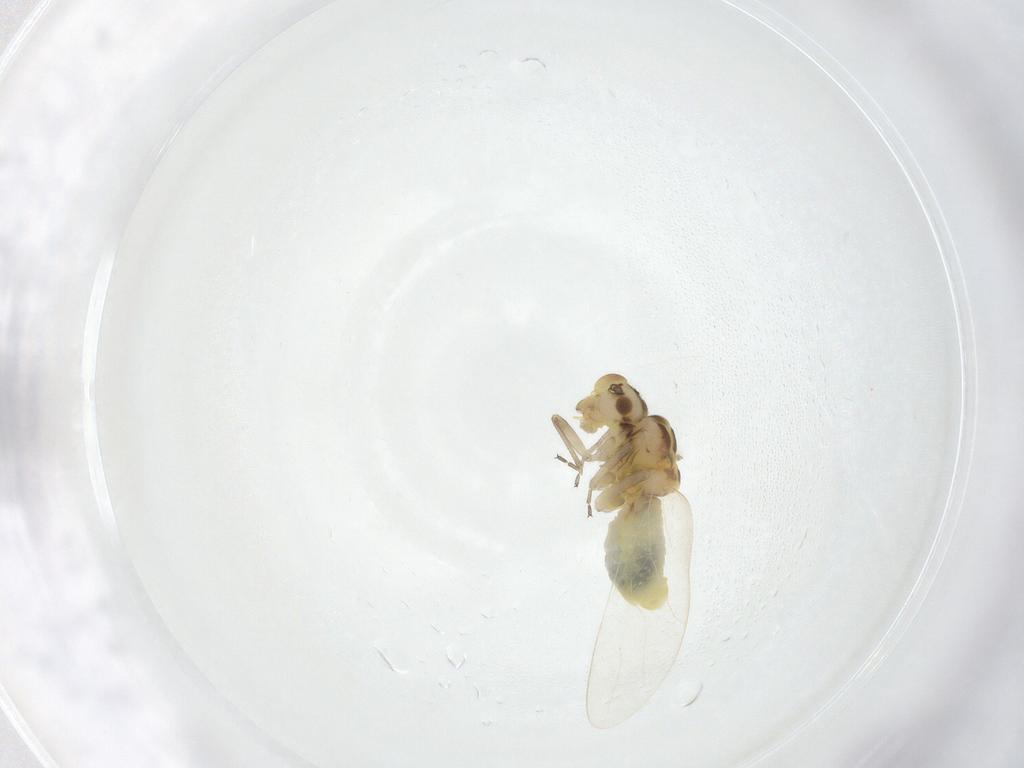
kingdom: Animalia
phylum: Arthropoda
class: Insecta
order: Psocodea
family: Caeciliusidae
